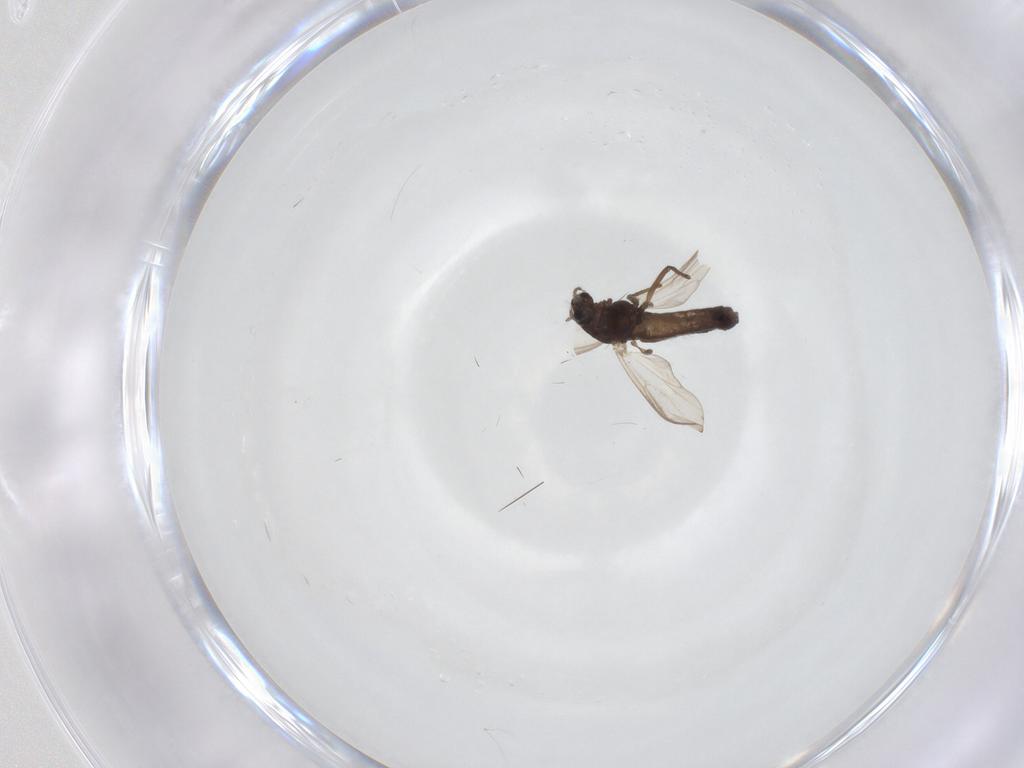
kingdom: Animalia
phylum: Arthropoda
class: Insecta
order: Diptera
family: Chironomidae
